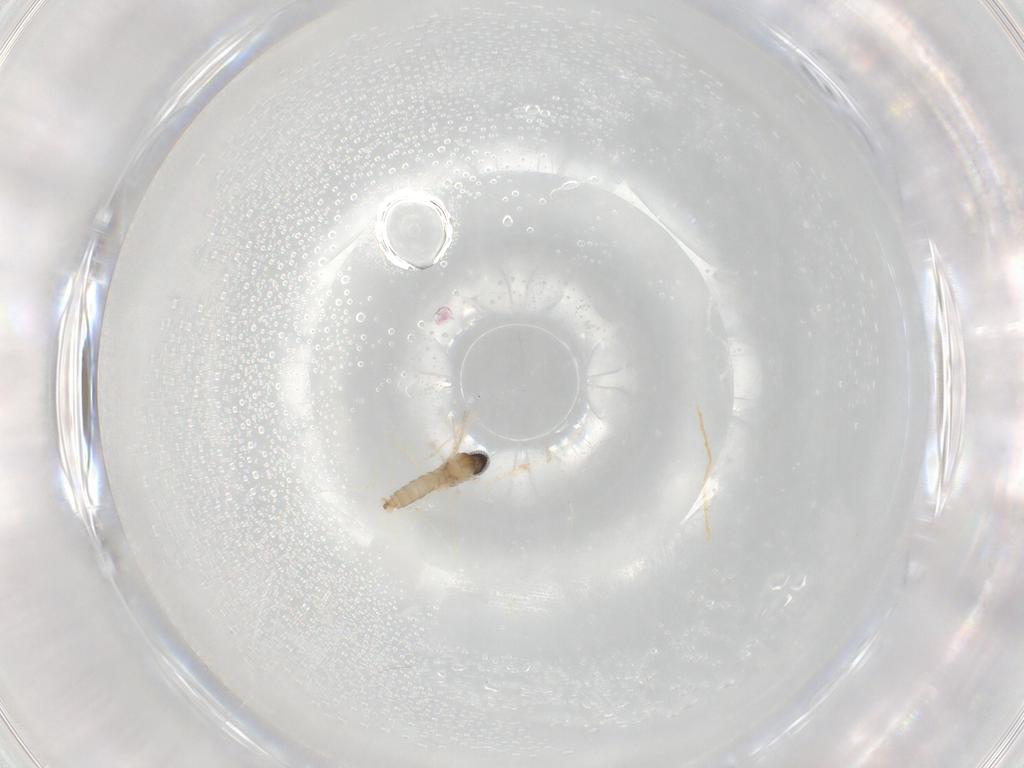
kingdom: Animalia
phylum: Arthropoda
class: Insecta
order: Diptera
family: Cecidomyiidae
